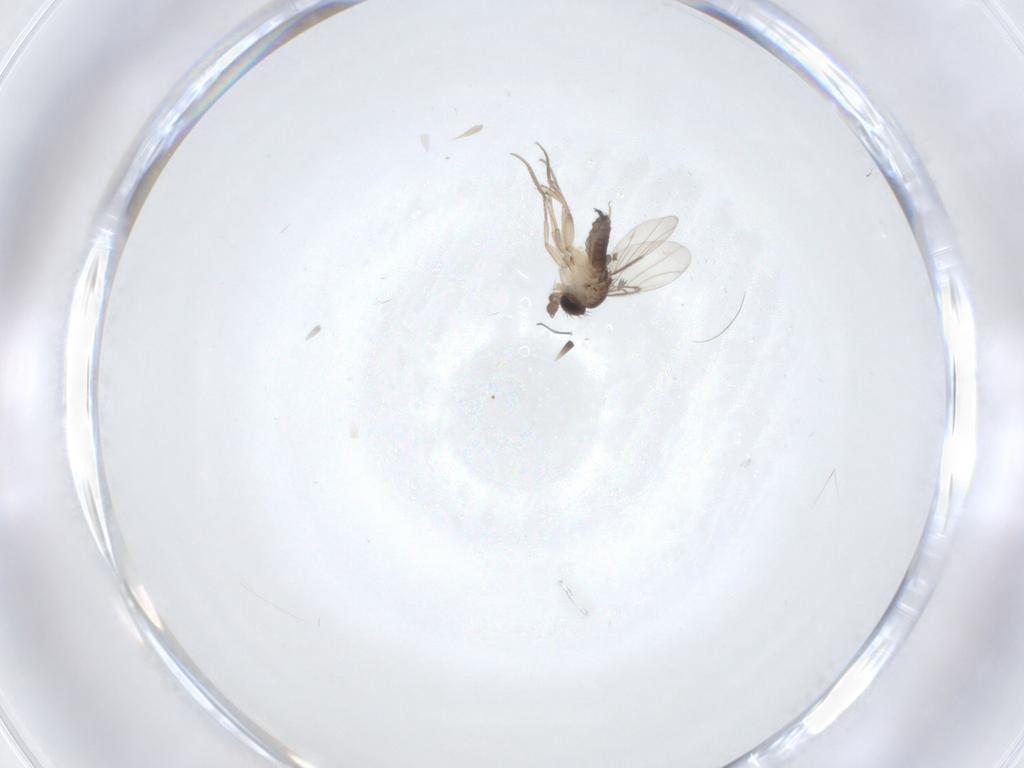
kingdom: Animalia
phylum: Arthropoda
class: Insecta
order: Diptera
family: Phoridae
